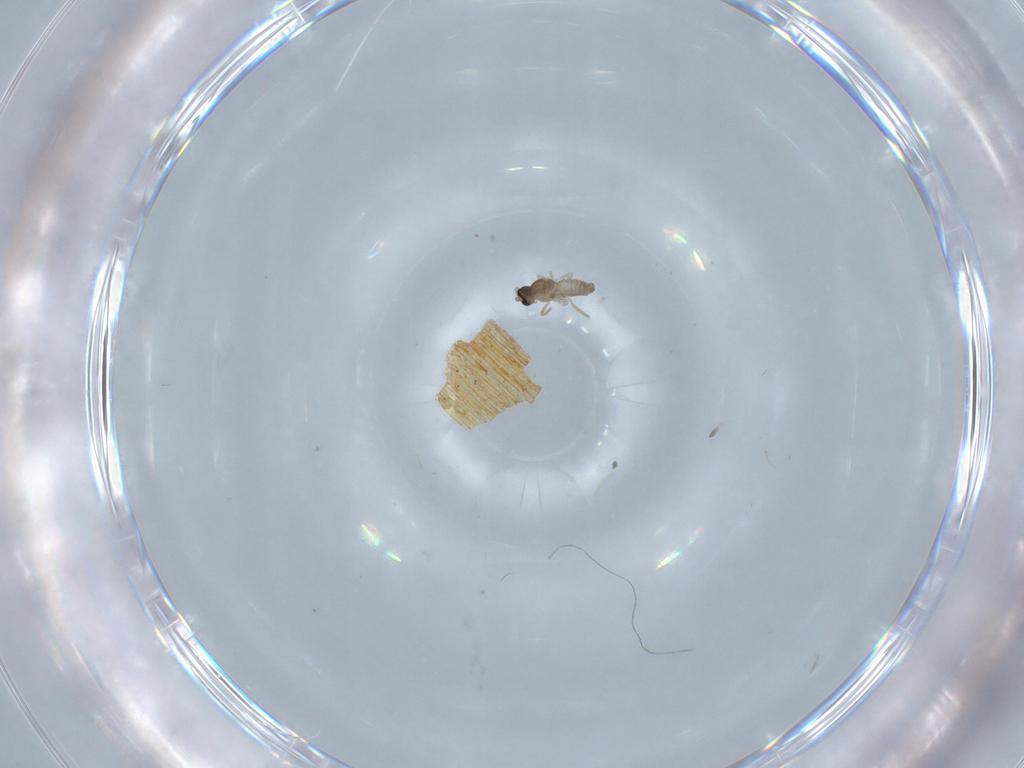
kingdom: Animalia
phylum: Arthropoda
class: Insecta
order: Diptera
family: Cecidomyiidae
